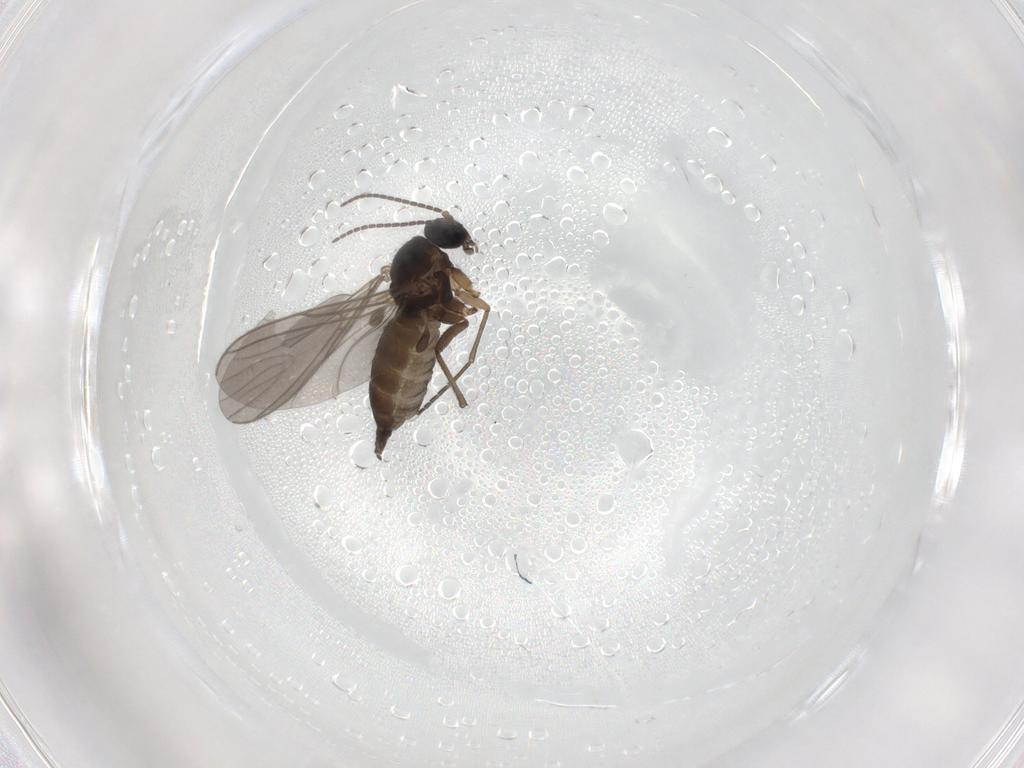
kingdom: Animalia
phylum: Arthropoda
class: Insecta
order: Diptera
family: Sciaridae
